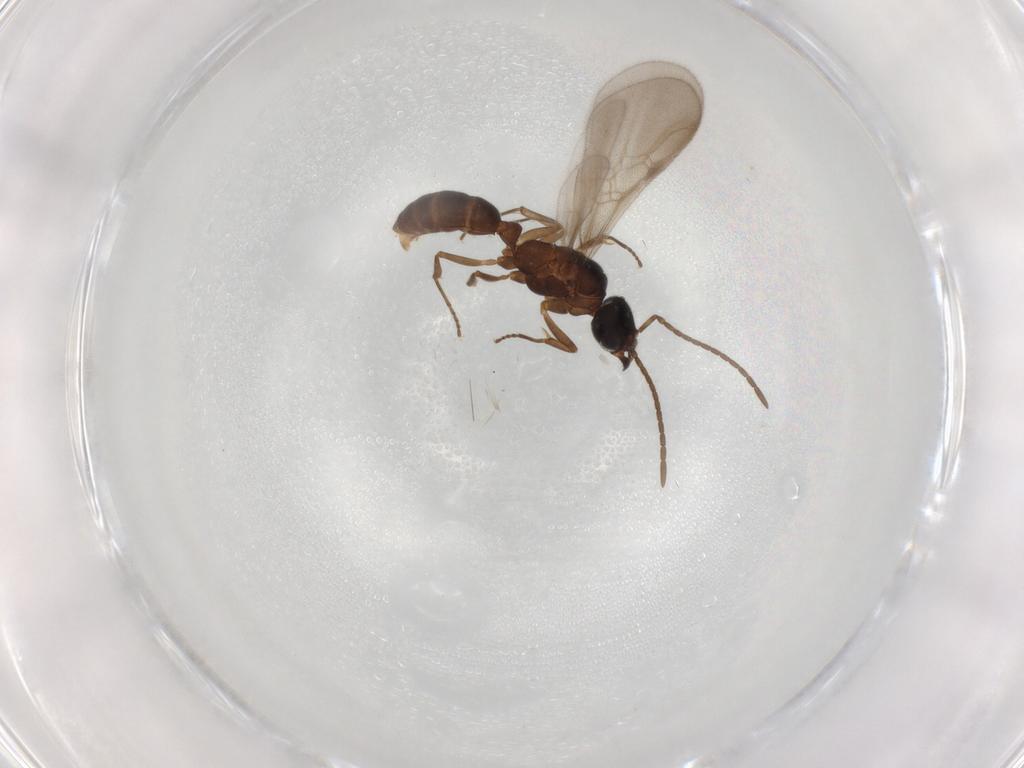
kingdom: Animalia
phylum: Arthropoda
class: Insecta
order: Hymenoptera
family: Formicidae
